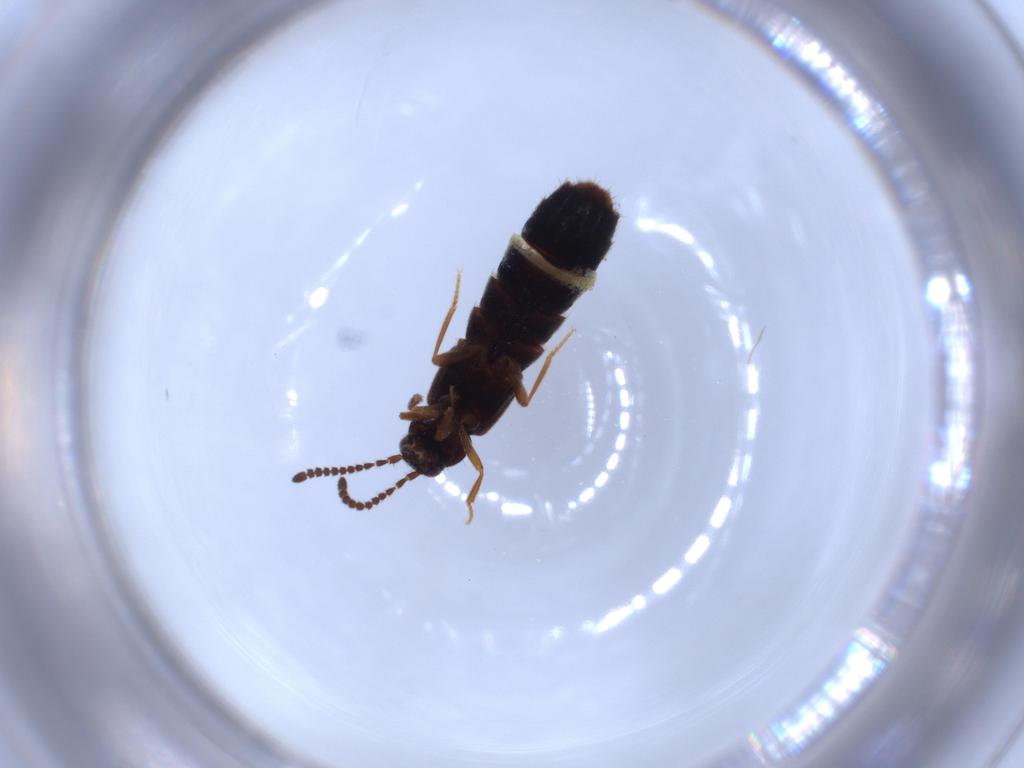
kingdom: Animalia
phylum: Arthropoda
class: Insecta
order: Coleoptera
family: Staphylinidae
